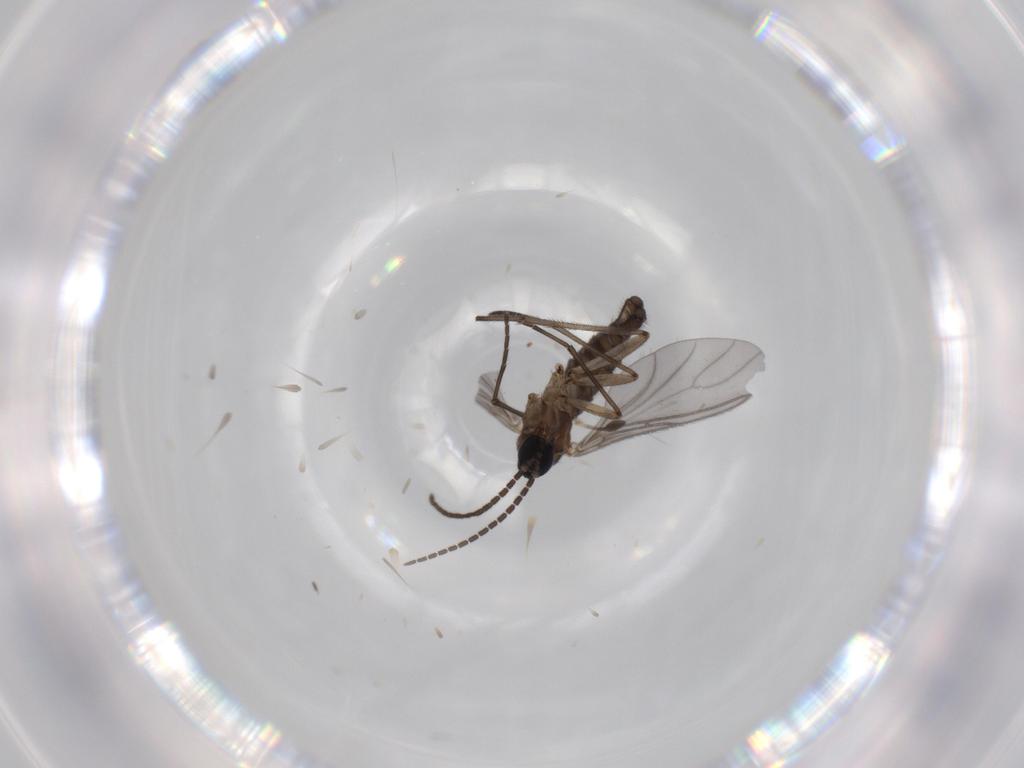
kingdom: Animalia
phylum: Arthropoda
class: Insecta
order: Diptera
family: Sciaridae
